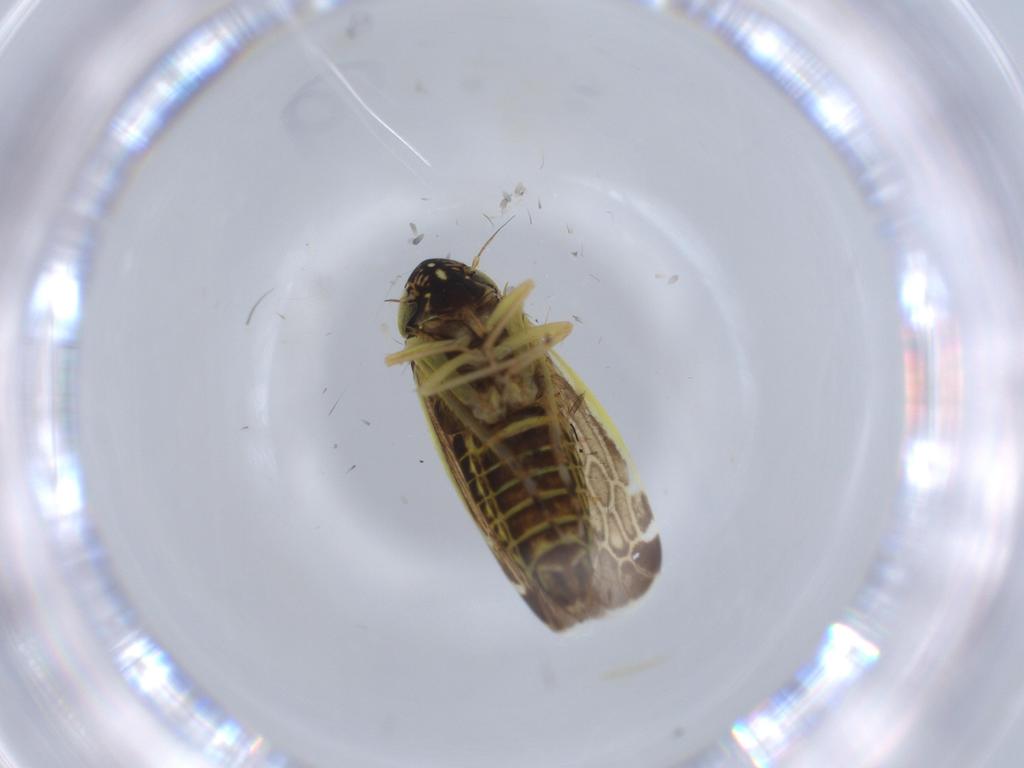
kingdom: Animalia
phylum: Arthropoda
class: Insecta
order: Hemiptera
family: Cicadellidae
